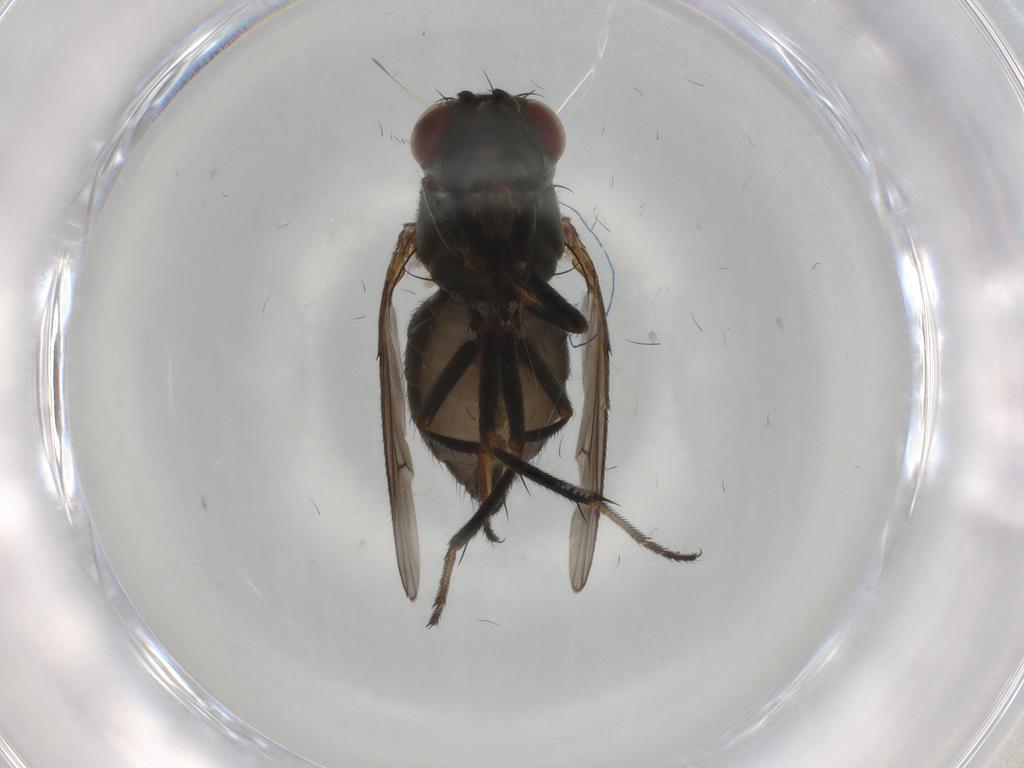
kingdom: Animalia
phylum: Arthropoda
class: Insecta
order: Diptera
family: Ephydridae
